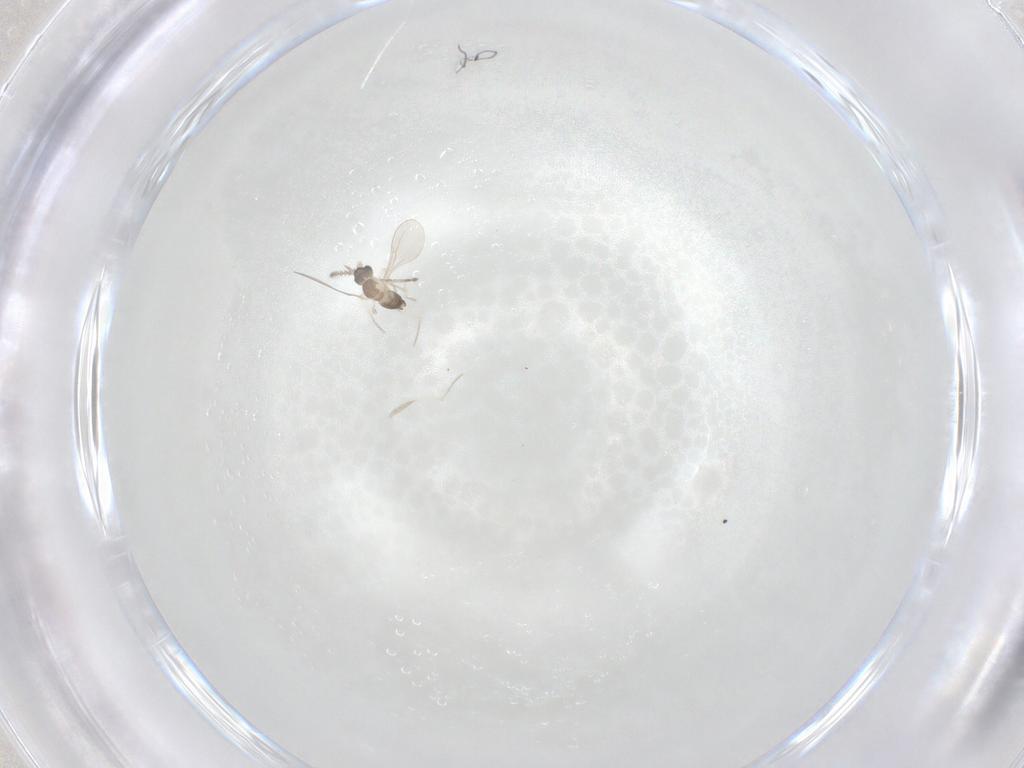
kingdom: Animalia
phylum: Arthropoda
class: Insecta
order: Diptera
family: Cecidomyiidae
